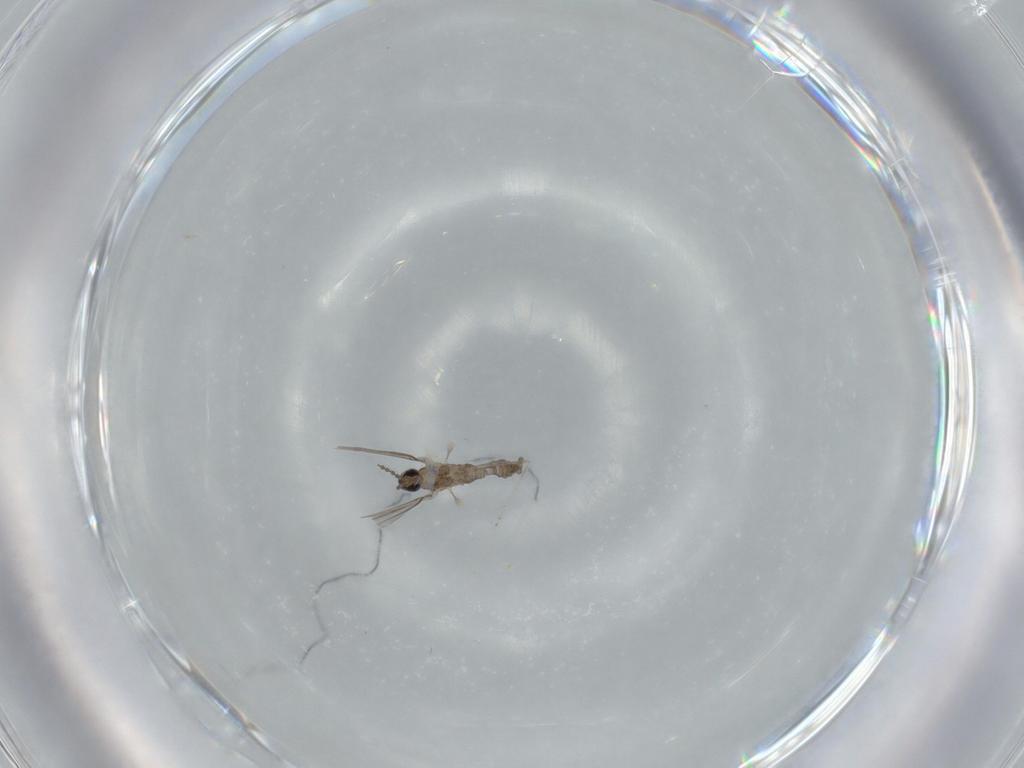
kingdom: Animalia
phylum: Arthropoda
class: Insecta
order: Diptera
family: Cecidomyiidae
